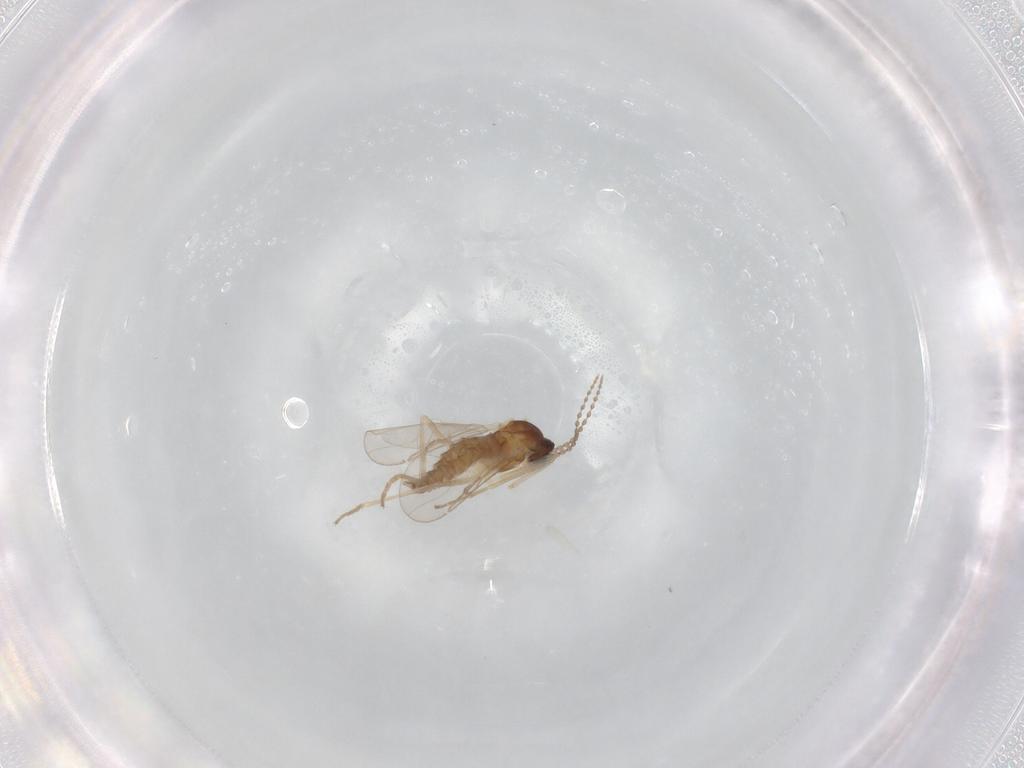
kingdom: Animalia
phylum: Arthropoda
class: Insecta
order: Diptera
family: Cecidomyiidae
